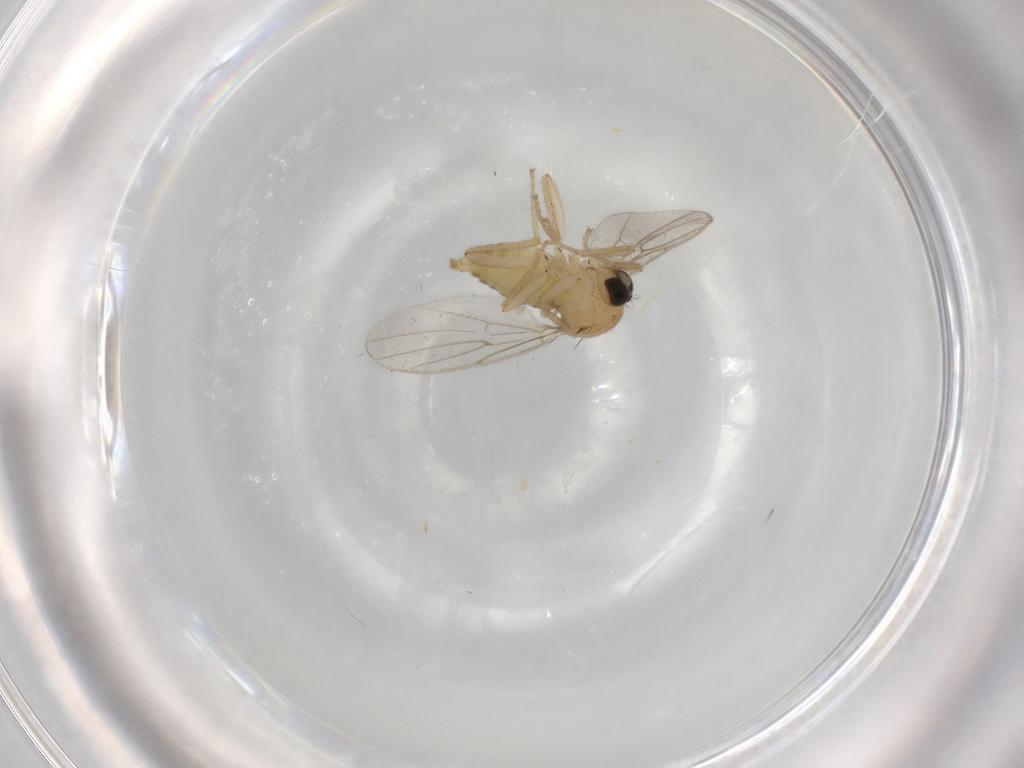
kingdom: Animalia
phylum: Arthropoda
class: Insecta
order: Diptera
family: Hybotidae
